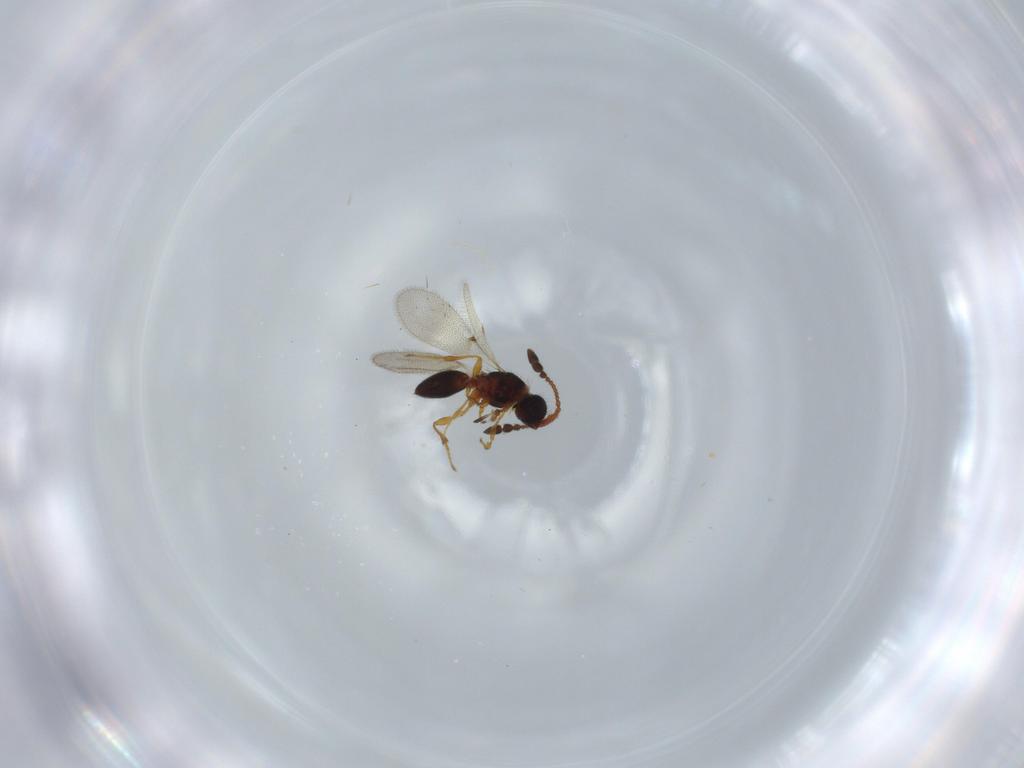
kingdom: Animalia
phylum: Arthropoda
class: Insecta
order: Hymenoptera
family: Diapriidae
